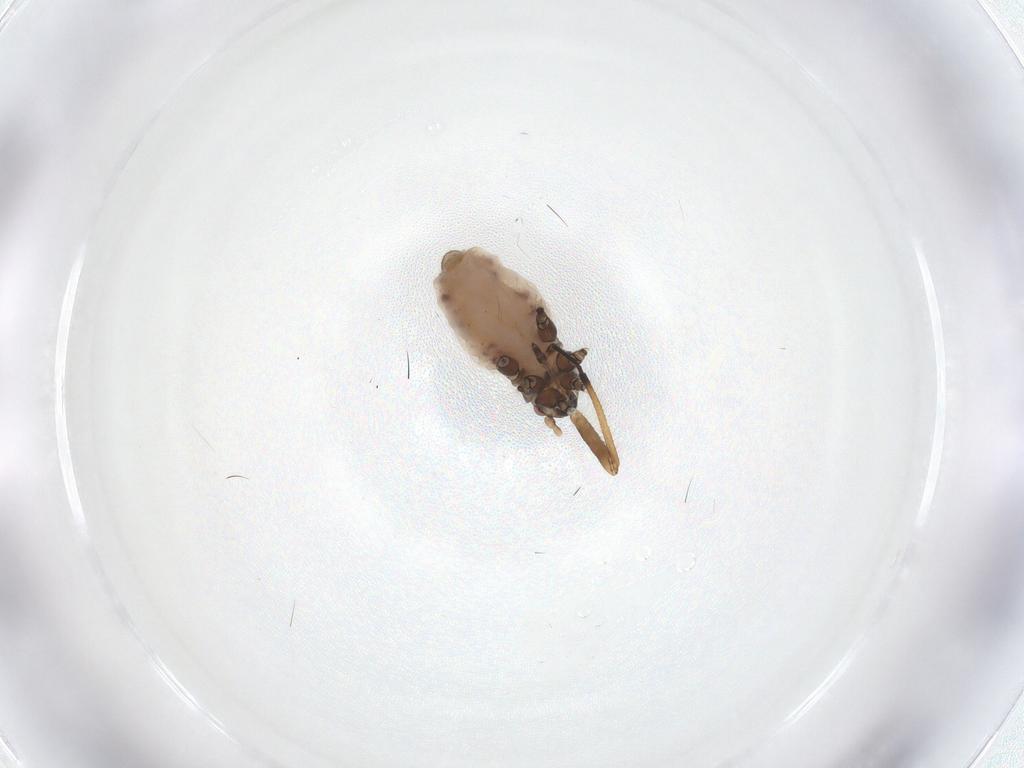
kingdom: Animalia
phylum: Arthropoda
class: Insecta
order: Hemiptera
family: Lachnidae
